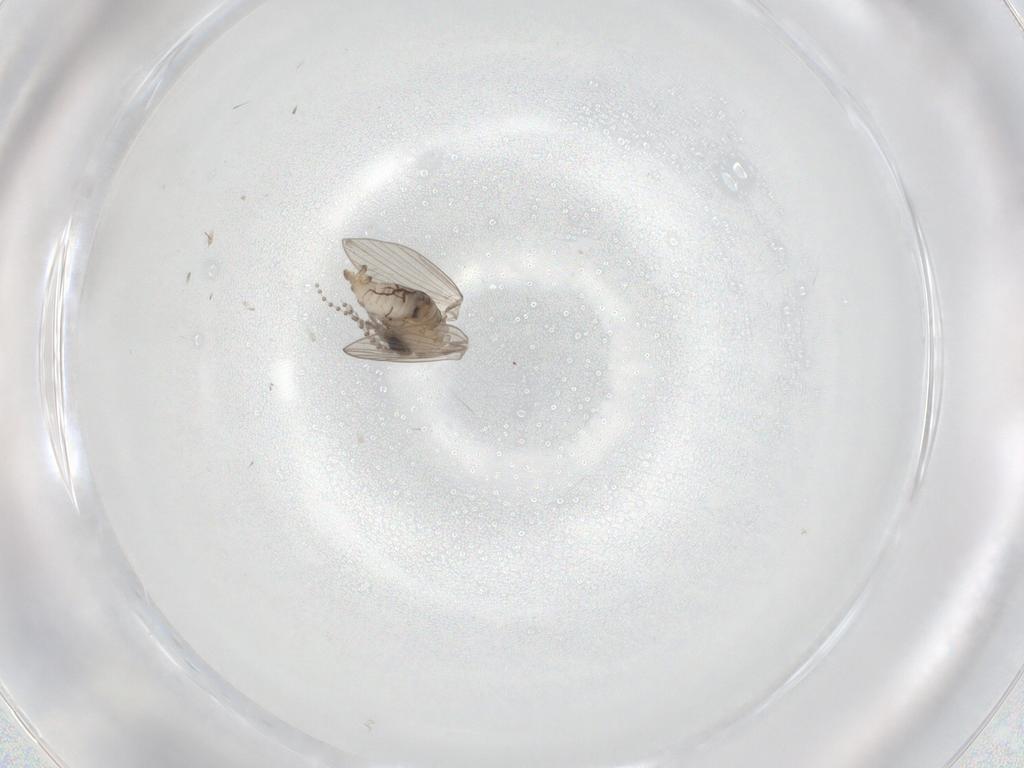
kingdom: Animalia
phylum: Arthropoda
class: Insecta
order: Diptera
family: Psychodidae
